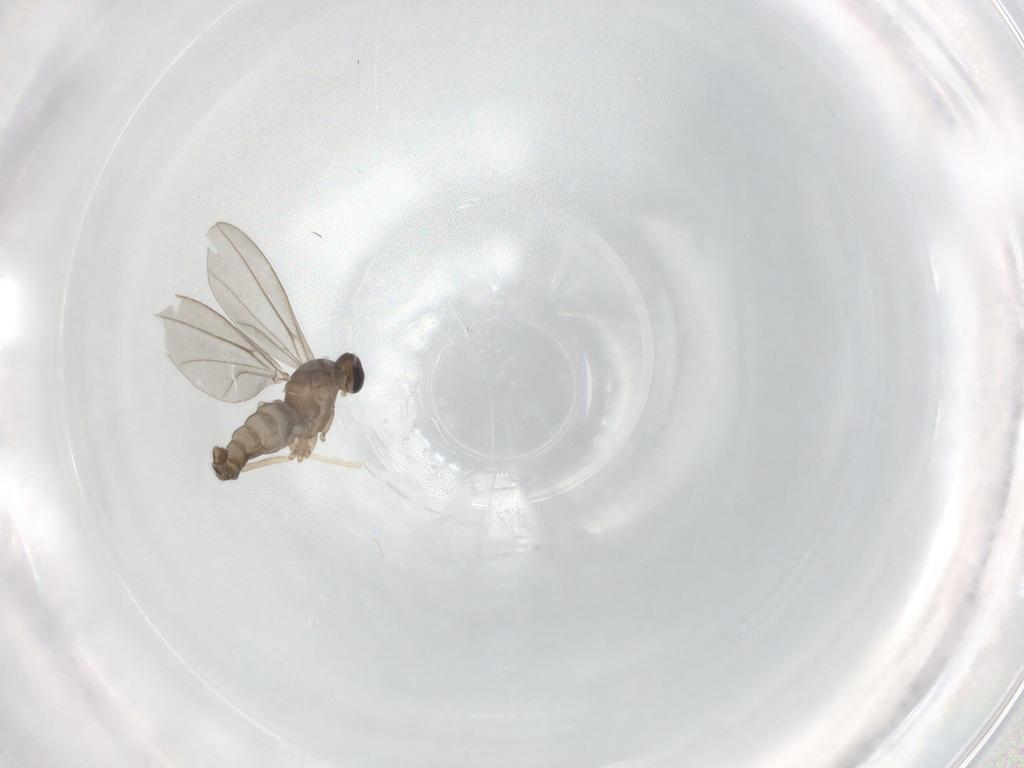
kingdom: Animalia
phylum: Arthropoda
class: Insecta
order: Diptera
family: Cecidomyiidae
